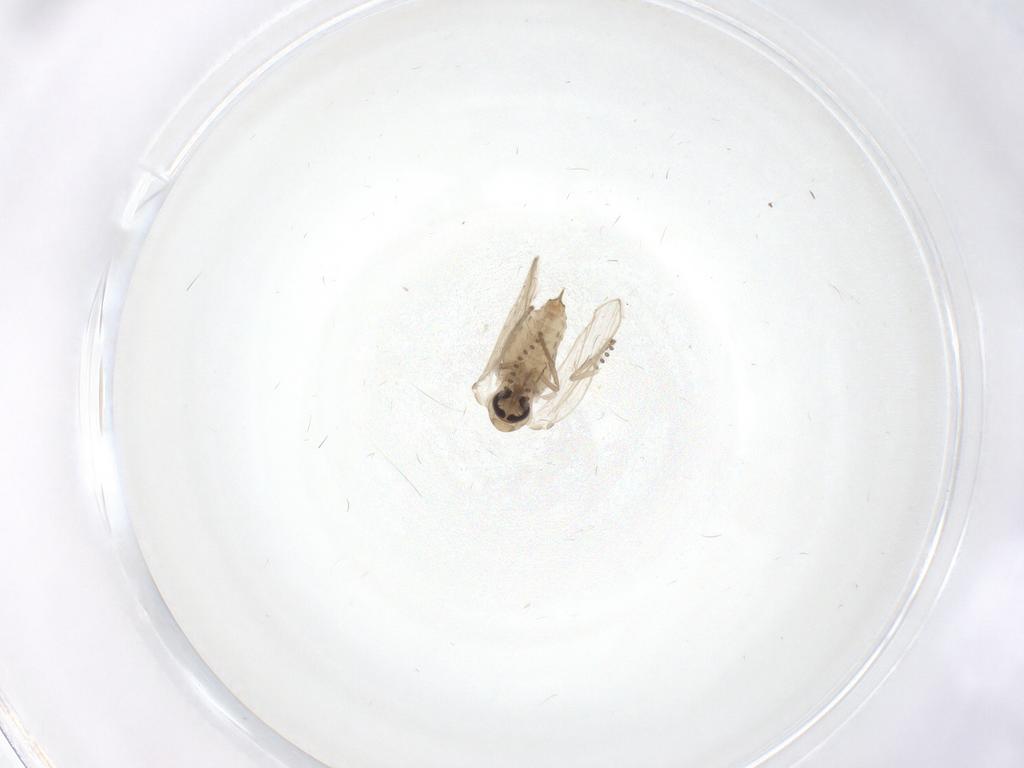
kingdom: Animalia
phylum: Arthropoda
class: Insecta
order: Diptera
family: Psychodidae
